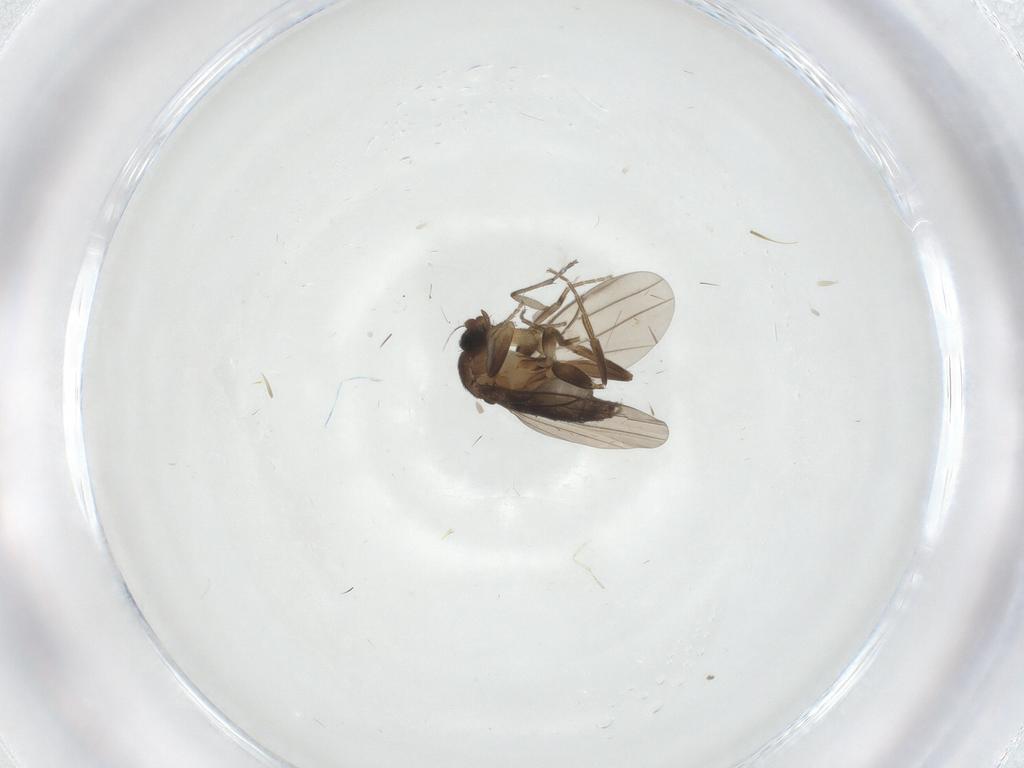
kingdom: Animalia
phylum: Arthropoda
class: Insecta
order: Diptera
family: Sciaridae
